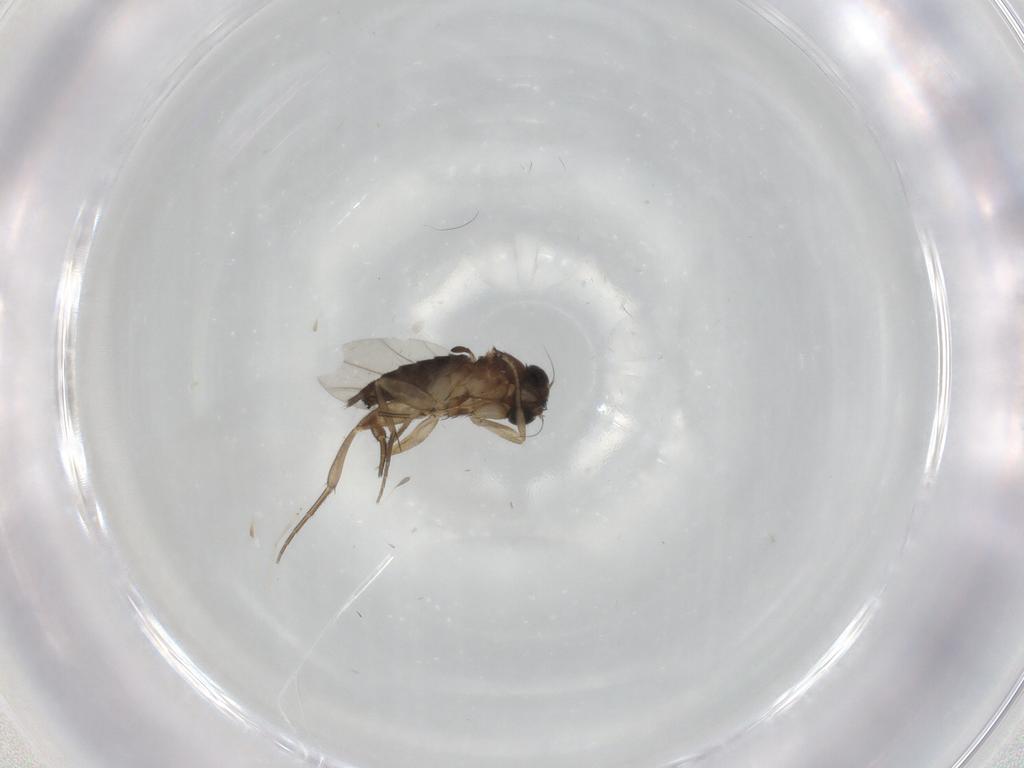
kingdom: Animalia
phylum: Arthropoda
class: Insecta
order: Diptera
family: Phoridae
